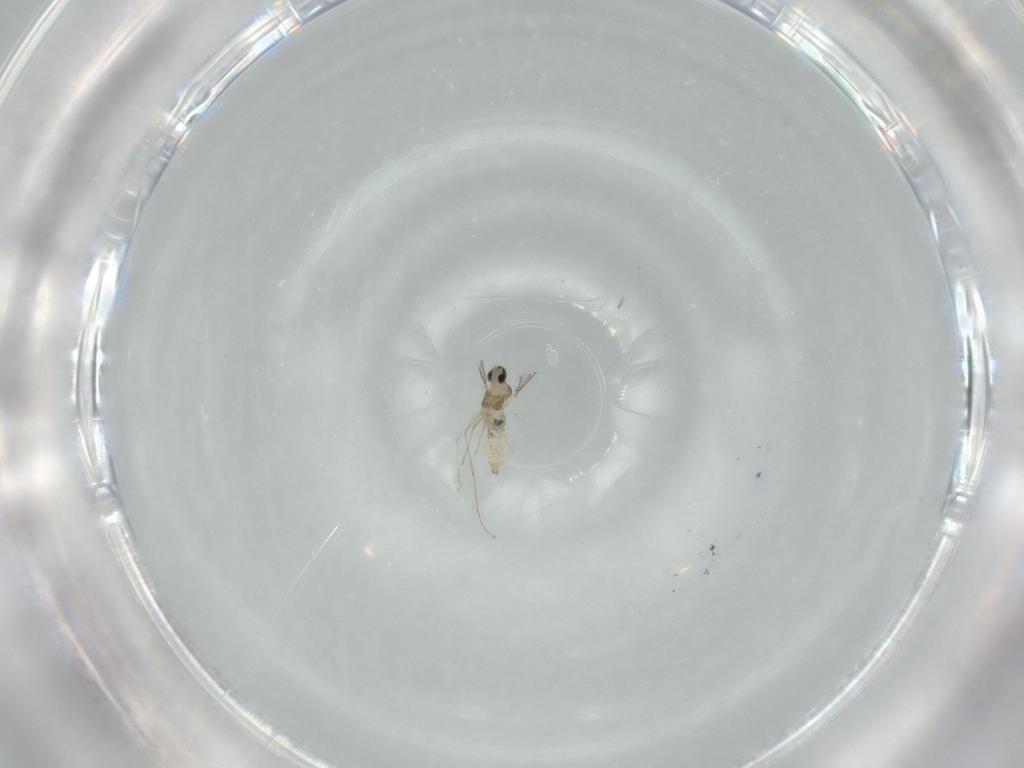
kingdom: Animalia
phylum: Arthropoda
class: Insecta
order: Diptera
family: Cecidomyiidae
